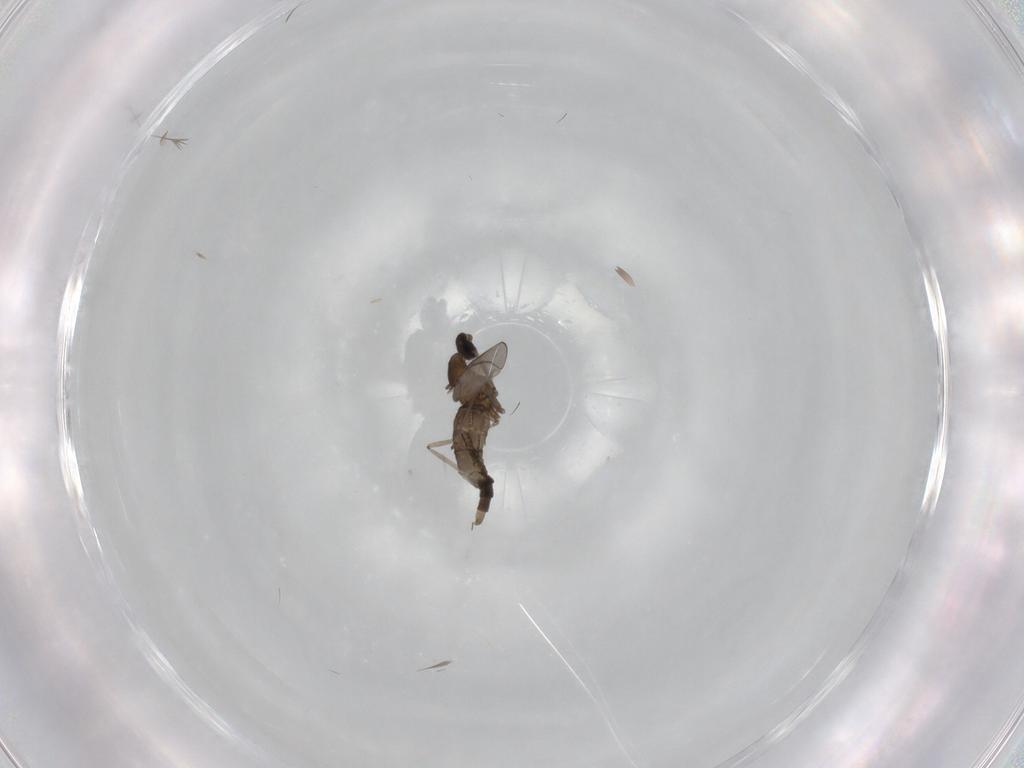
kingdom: Animalia
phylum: Arthropoda
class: Insecta
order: Diptera
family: Cecidomyiidae
